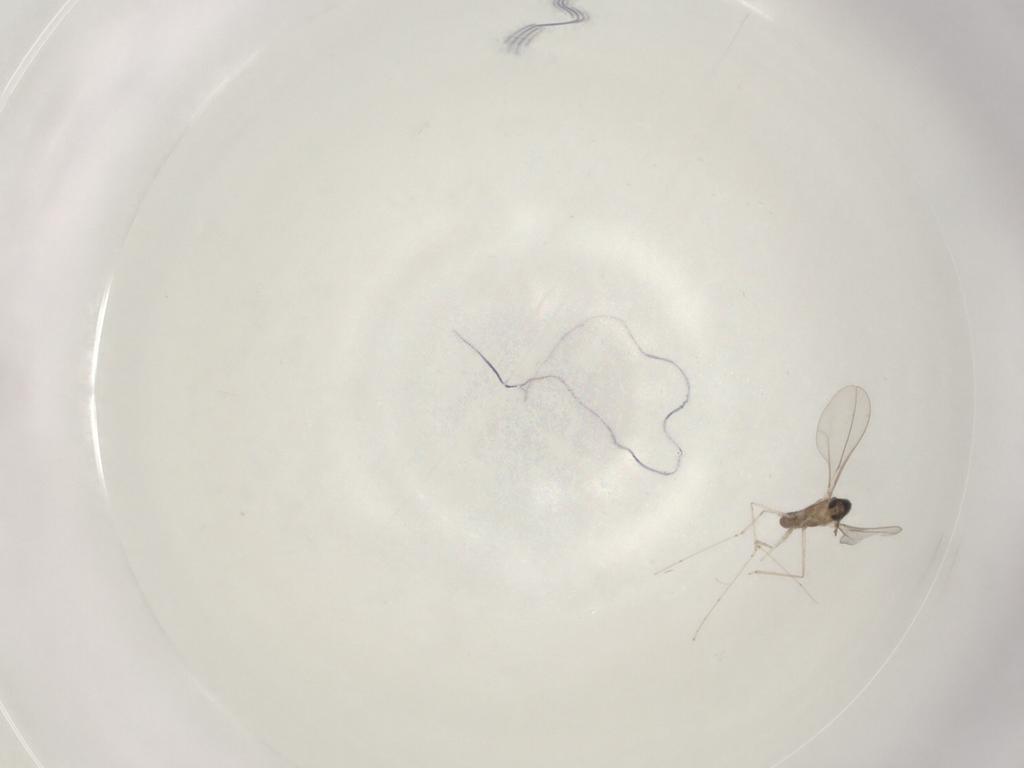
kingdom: Animalia
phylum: Arthropoda
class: Insecta
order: Diptera
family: Cecidomyiidae
